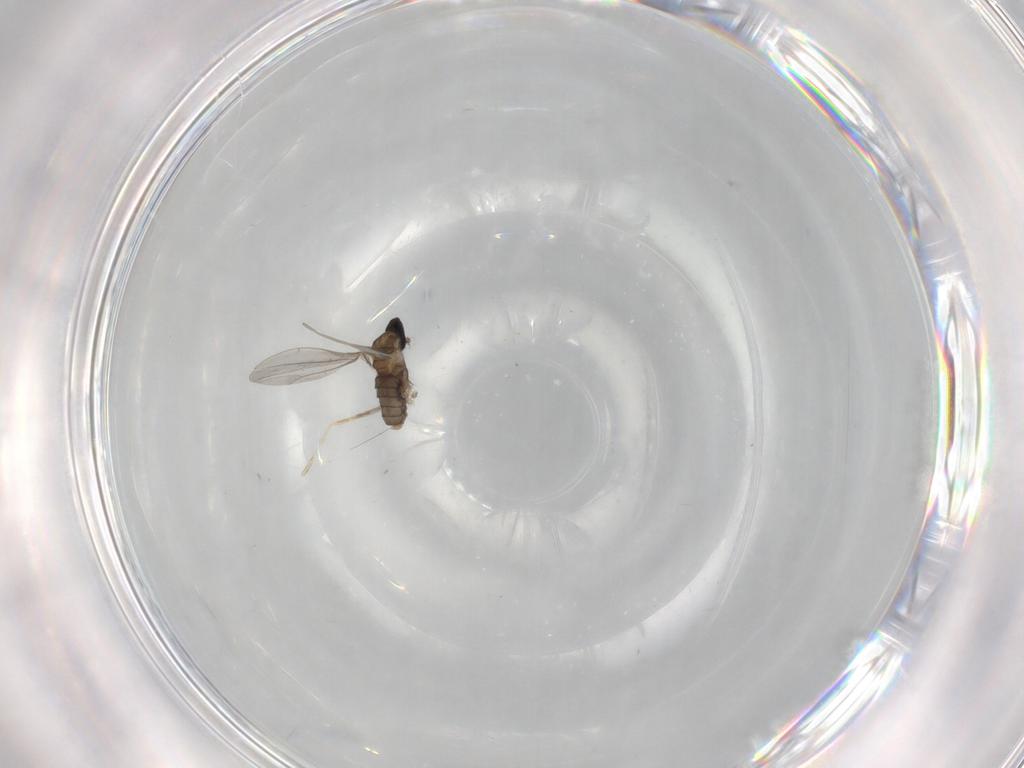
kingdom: Animalia
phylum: Arthropoda
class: Insecta
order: Diptera
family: Cecidomyiidae
